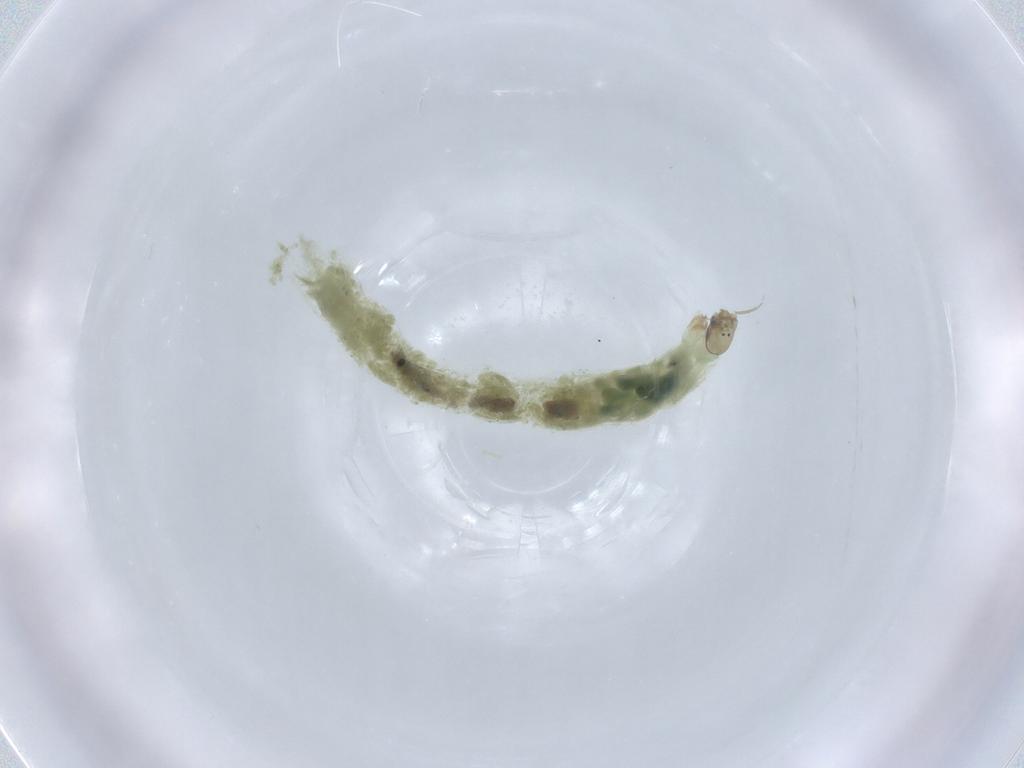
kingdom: Animalia
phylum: Arthropoda
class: Insecta
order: Diptera
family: Chironomidae
